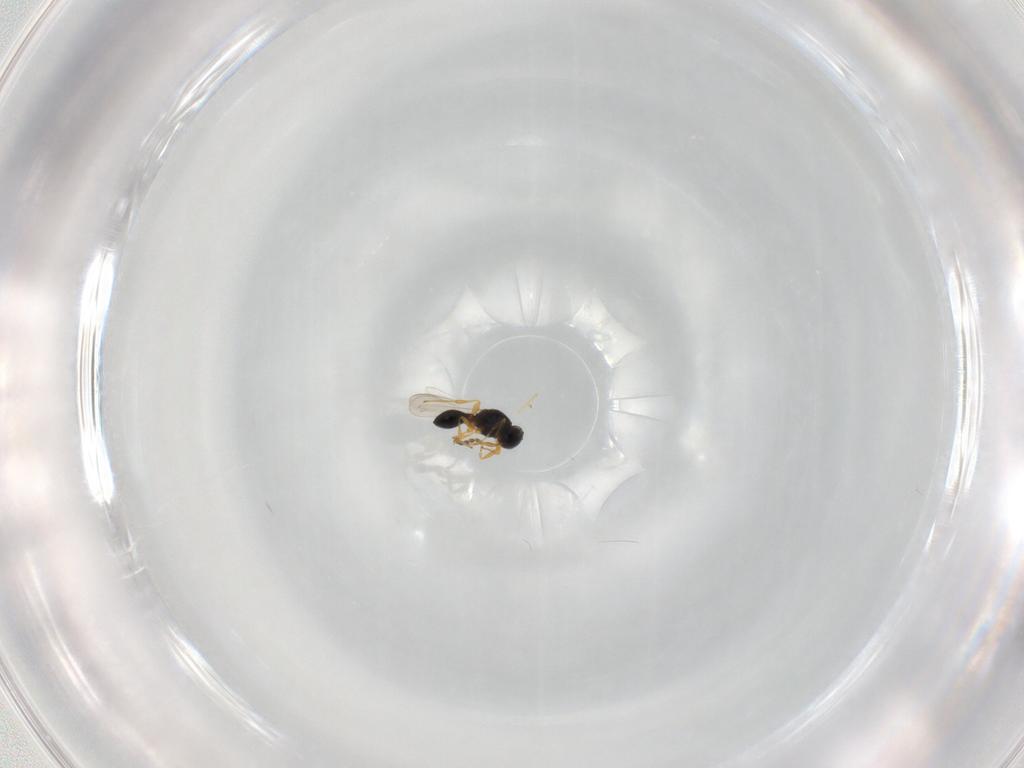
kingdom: Animalia
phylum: Arthropoda
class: Insecta
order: Hymenoptera
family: Platygastridae
